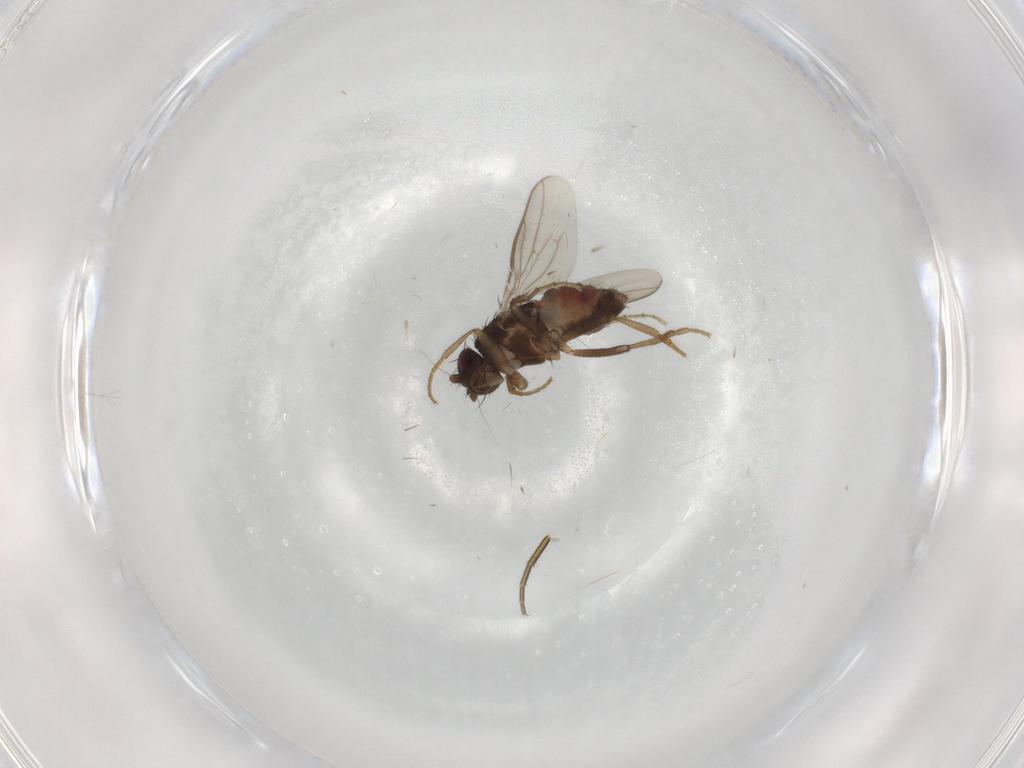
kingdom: Animalia
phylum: Arthropoda
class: Insecta
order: Diptera
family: Sphaeroceridae
